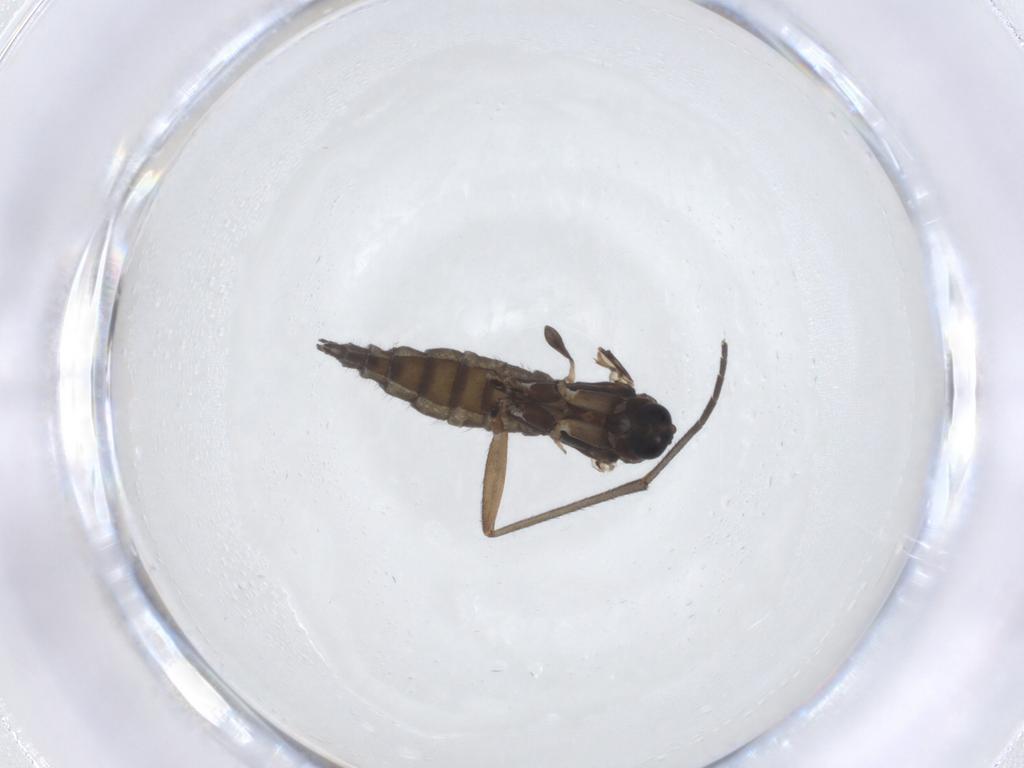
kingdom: Animalia
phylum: Arthropoda
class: Insecta
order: Diptera
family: Sciaridae
